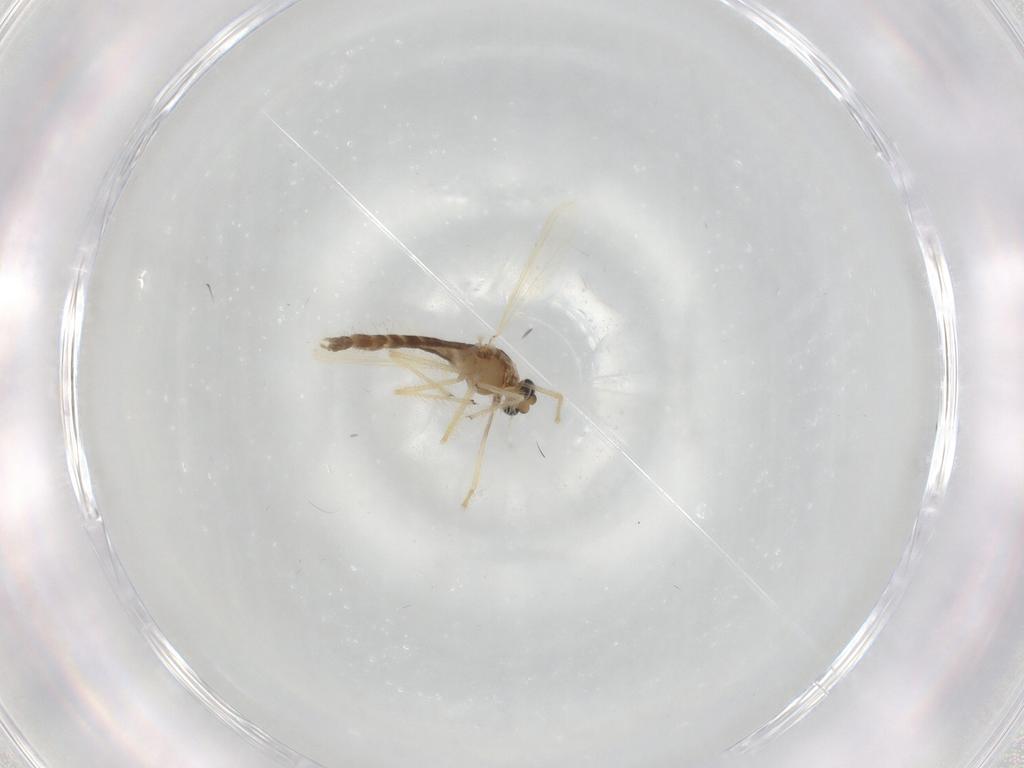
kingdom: Animalia
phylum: Arthropoda
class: Insecta
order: Diptera
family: Chironomidae
